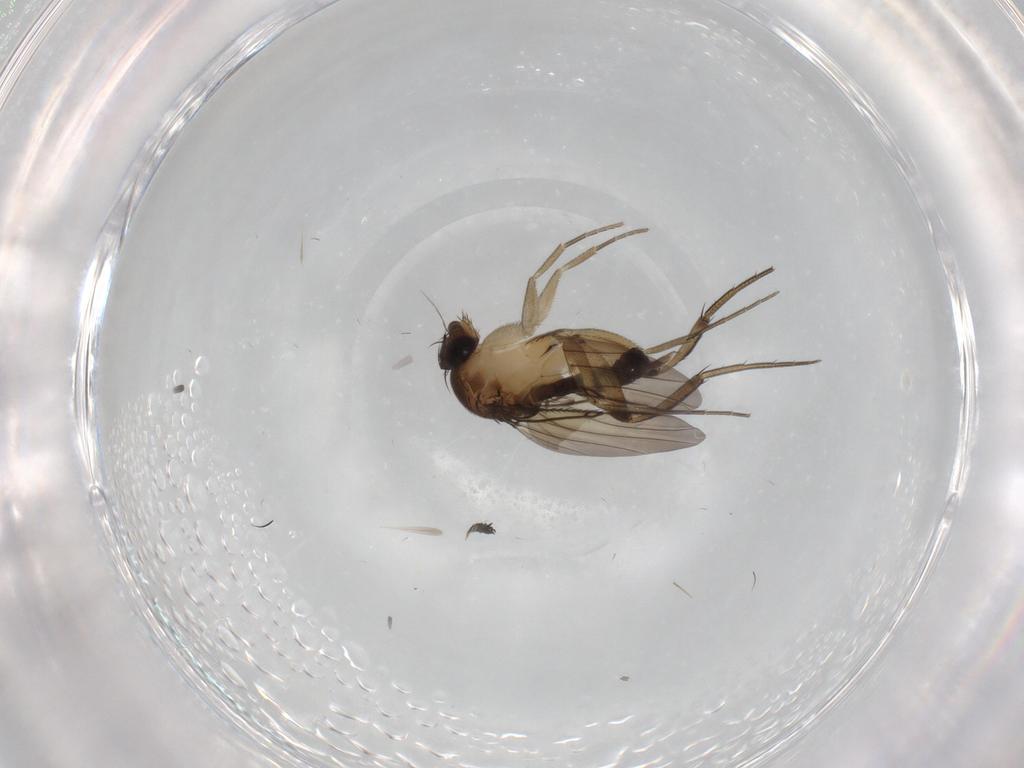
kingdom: Animalia
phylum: Arthropoda
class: Insecta
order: Diptera
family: Phoridae
